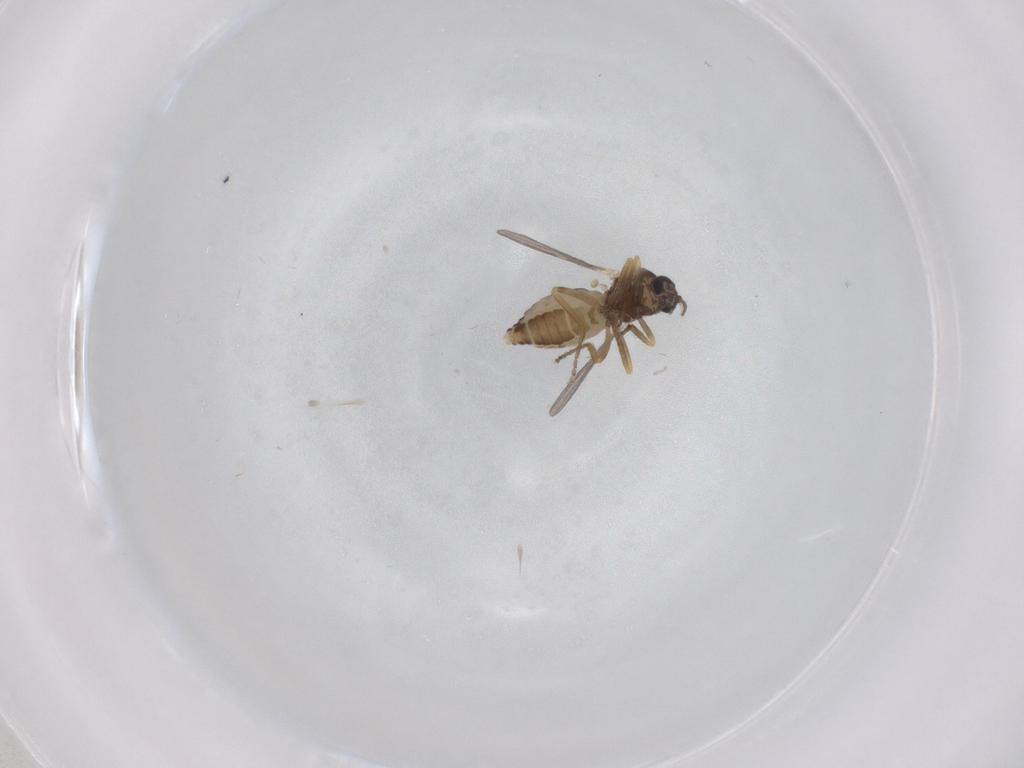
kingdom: Animalia
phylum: Arthropoda
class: Insecta
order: Diptera
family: Ceratopogonidae
